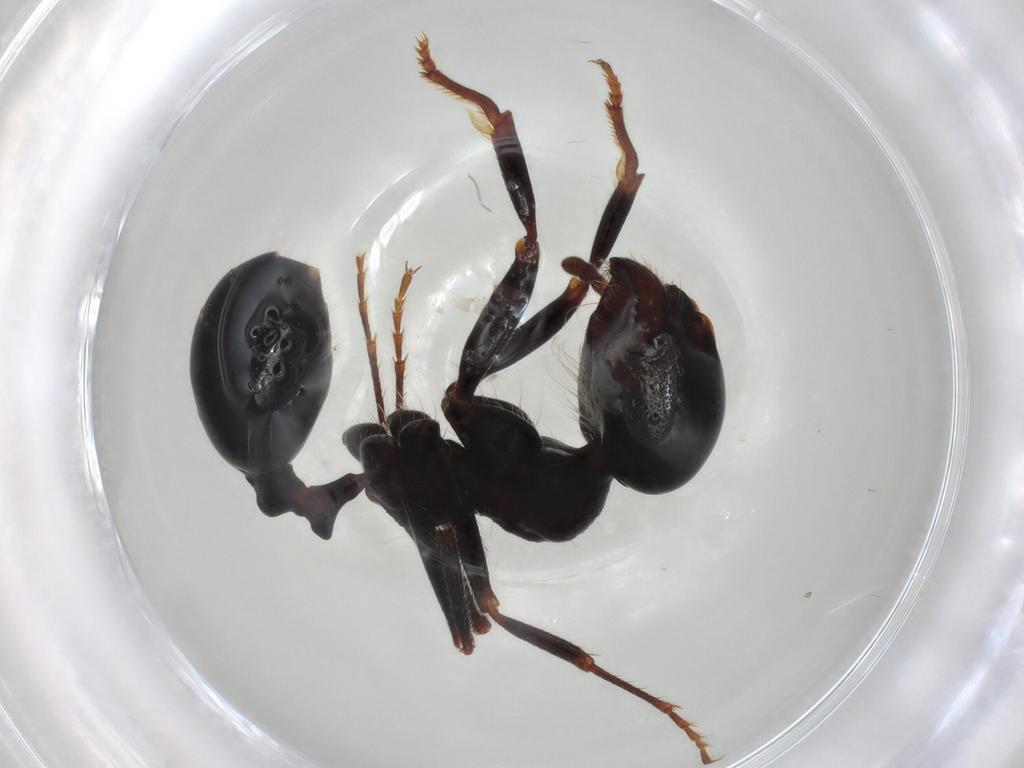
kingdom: Animalia
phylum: Arthropoda
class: Insecta
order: Hymenoptera
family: Formicidae
